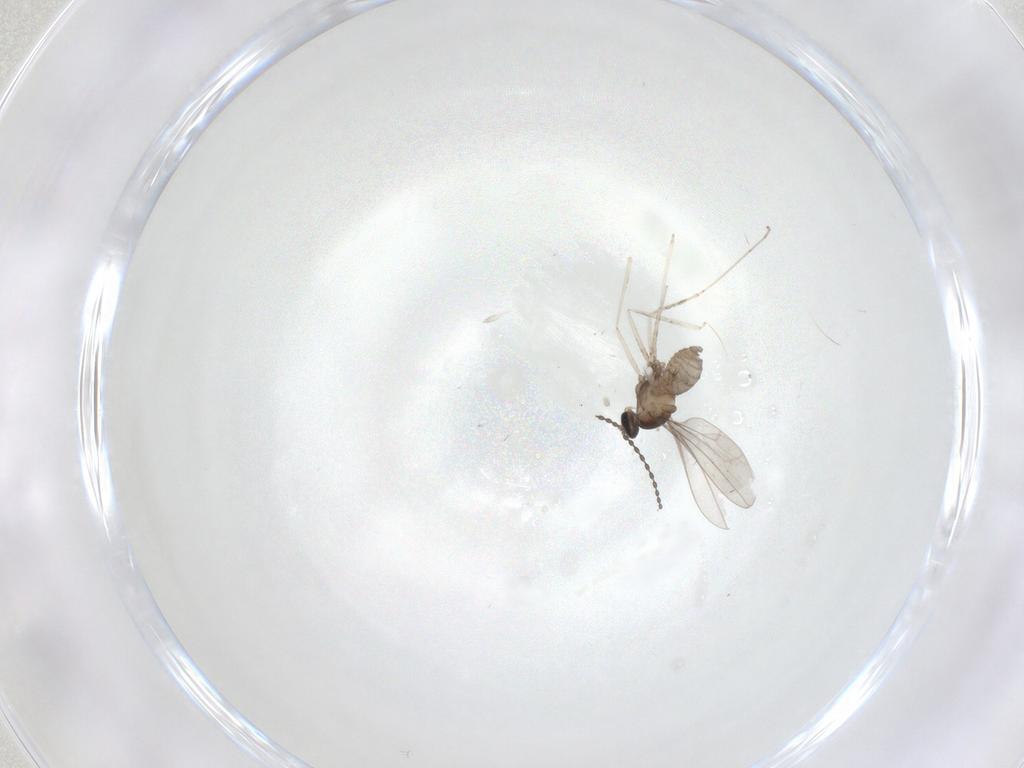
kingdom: Animalia
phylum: Arthropoda
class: Insecta
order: Diptera
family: Cecidomyiidae
